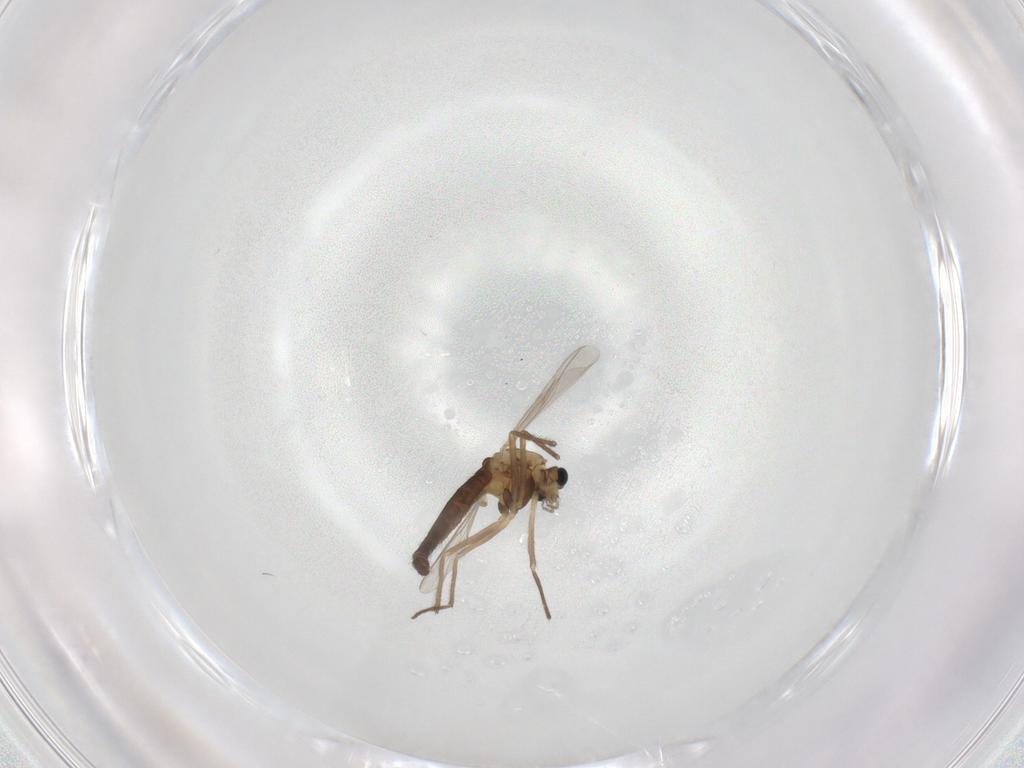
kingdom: Animalia
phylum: Arthropoda
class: Insecta
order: Diptera
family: Chironomidae
